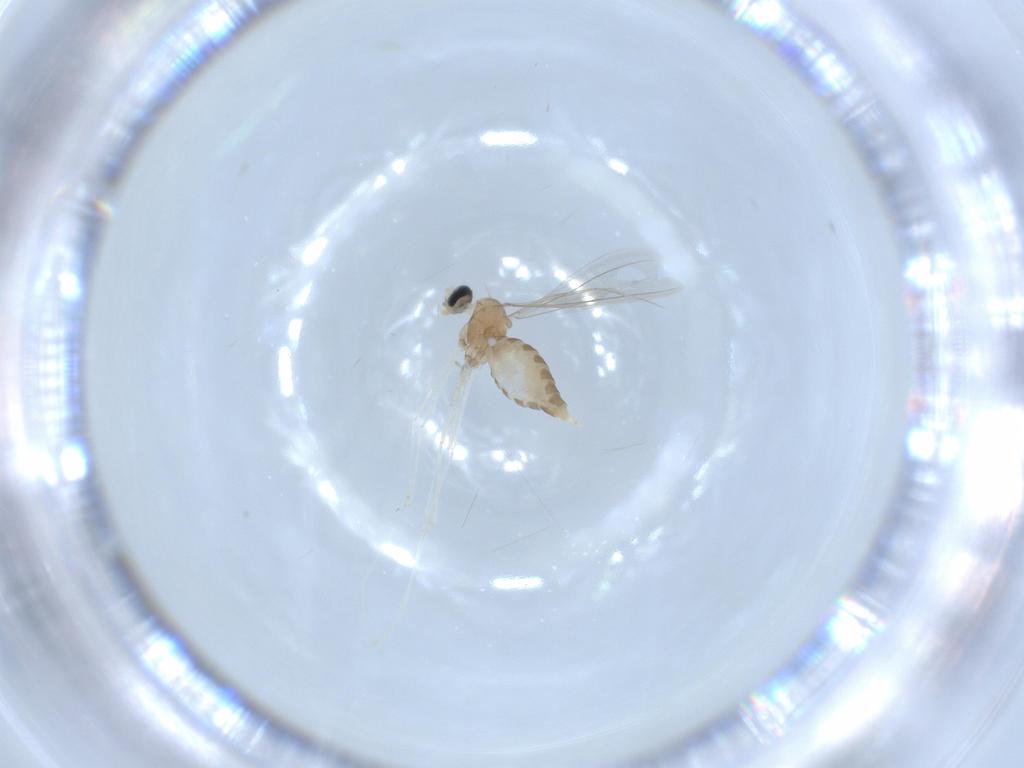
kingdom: Animalia
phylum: Arthropoda
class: Insecta
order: Diptera
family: Cecidomyiidae
